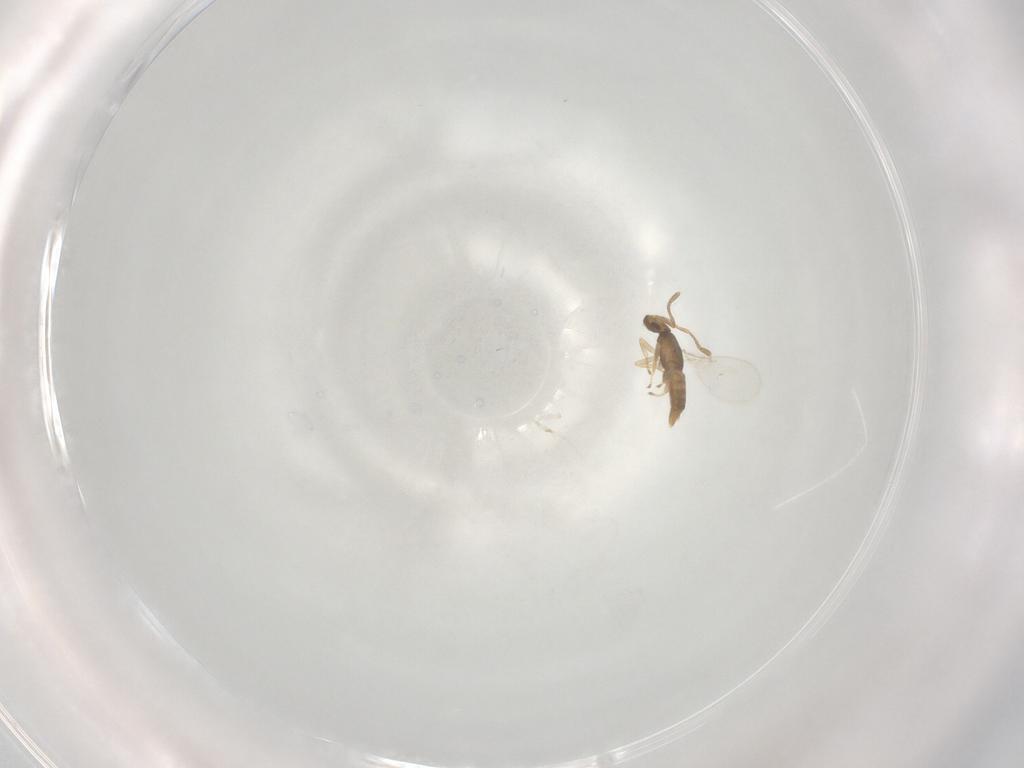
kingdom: Animalia
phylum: Arthropoda
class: Insecta
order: Hymenoptera
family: Encyrtidae
